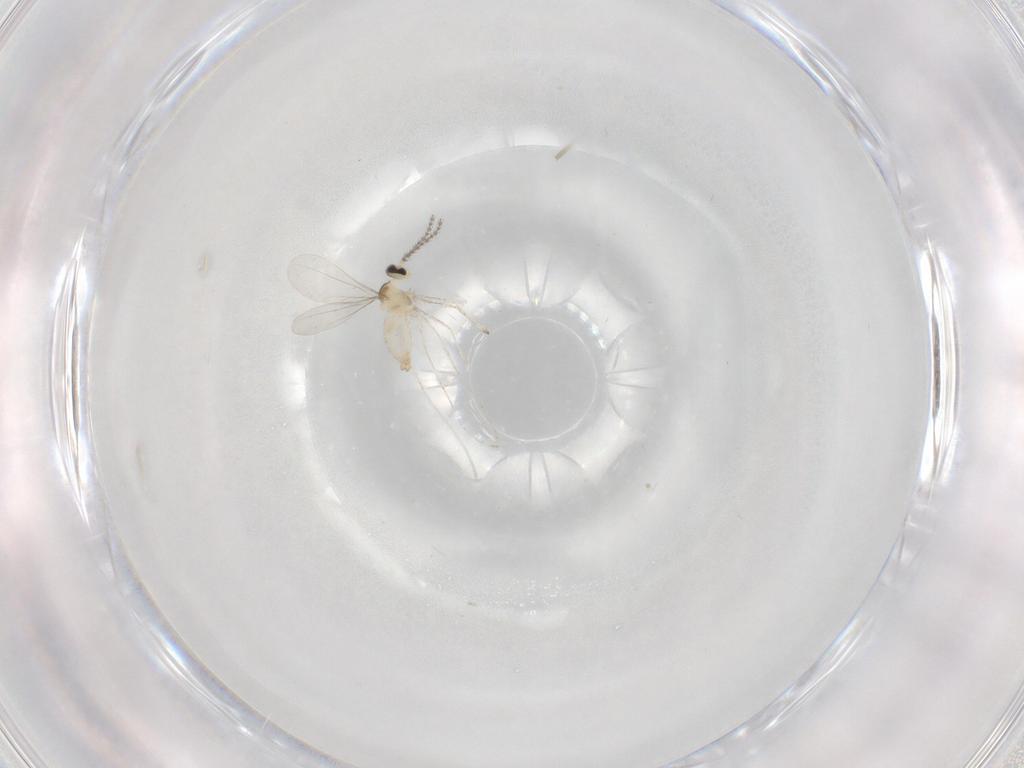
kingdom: Animalia
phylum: Arthropoda
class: Insecta
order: Diptera
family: Cecidomyiidae
